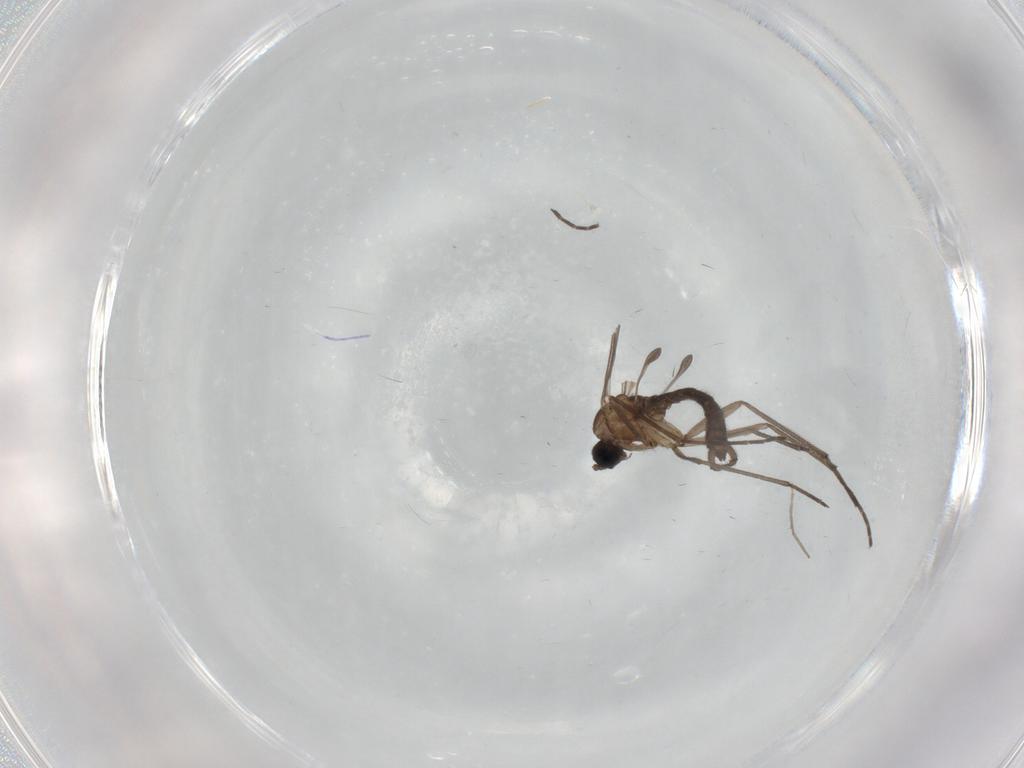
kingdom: Animalia
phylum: Arthropoda
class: Insecta
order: Diptera
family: Sciaridae
